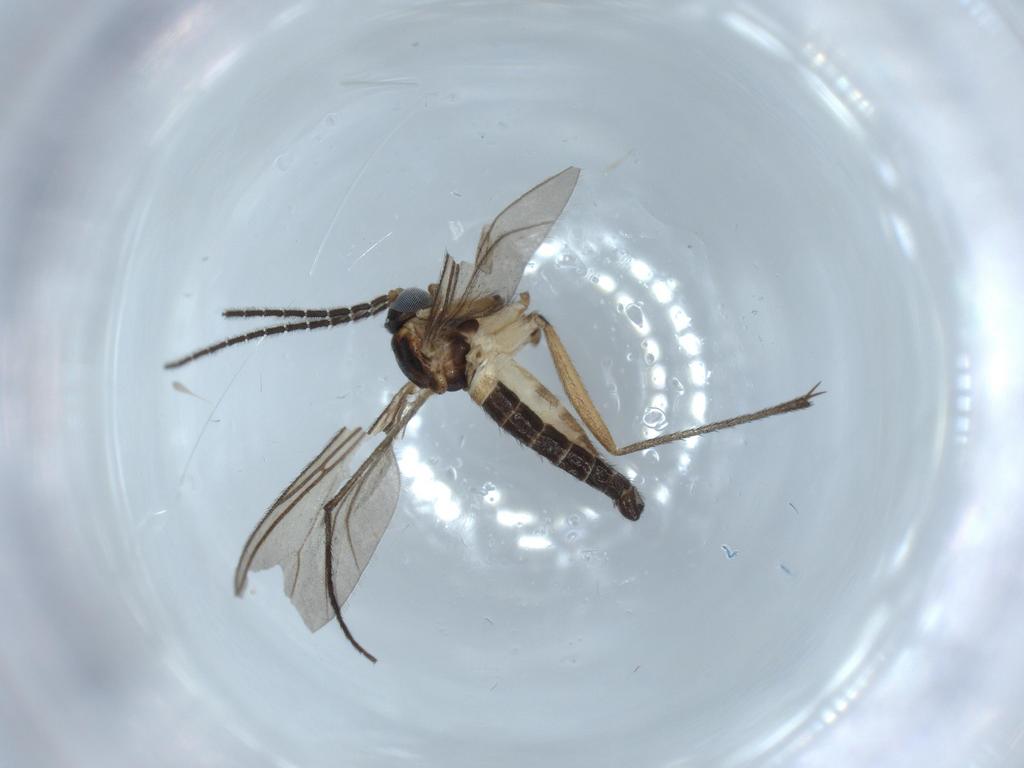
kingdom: Animalia
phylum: Arthropoda
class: Insecta
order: Diptera
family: Sciaridae
